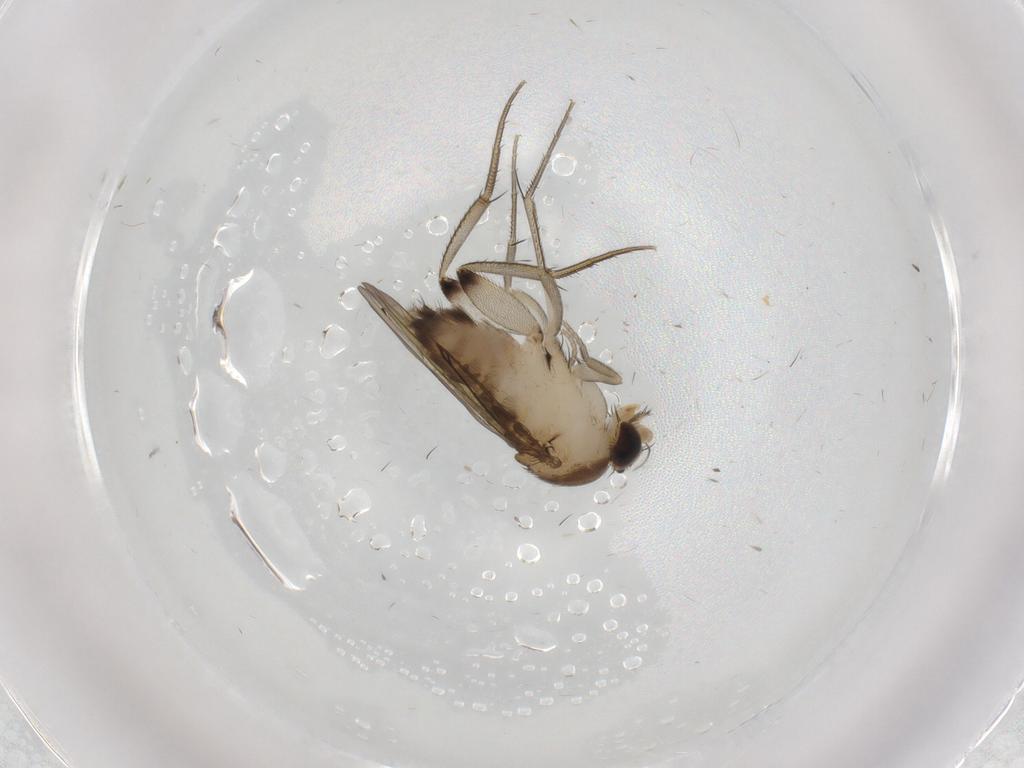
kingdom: Animalia
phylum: Arthropoda
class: Insecta
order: Diptera
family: Phoridae
